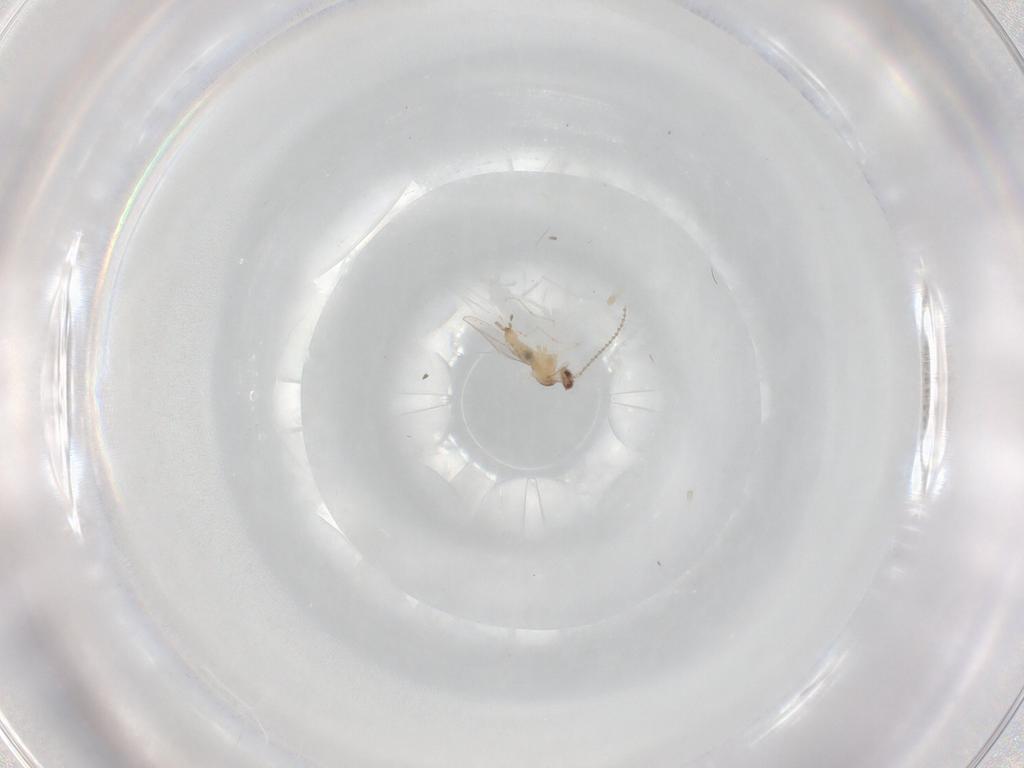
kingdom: Animalia
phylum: Arthropoda
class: Insecta
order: Diptera
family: Cecidomyiidae
